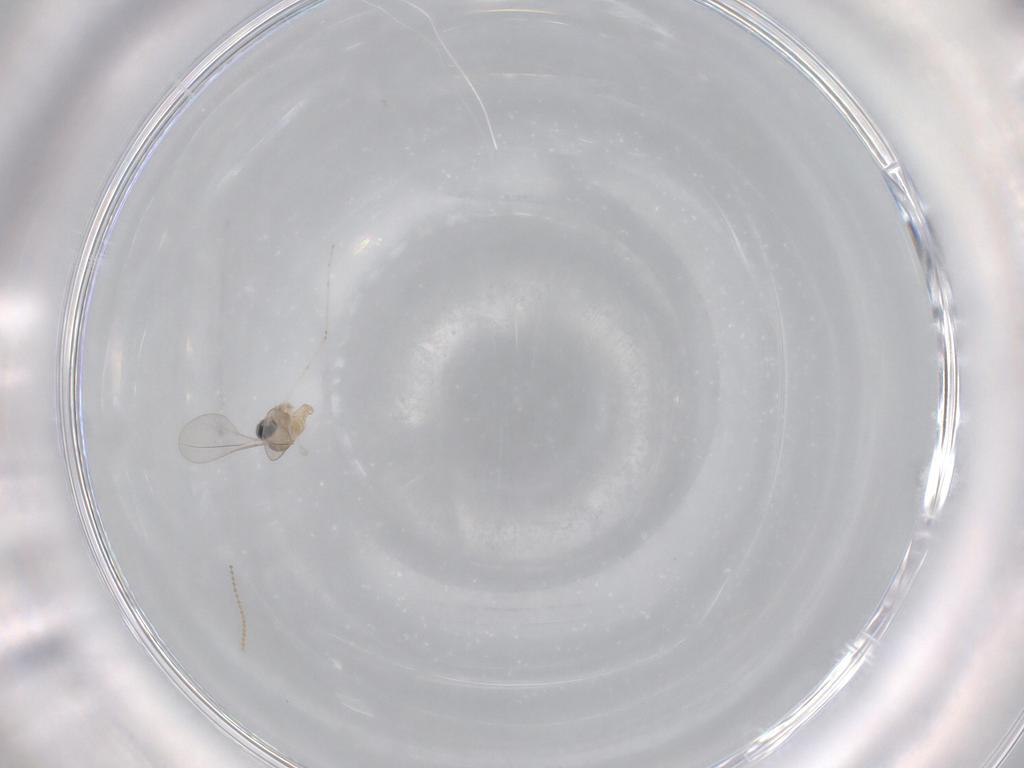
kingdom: Animalia
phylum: Arthropoda
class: Insecta
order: Diptera
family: Cecidomyiidae
